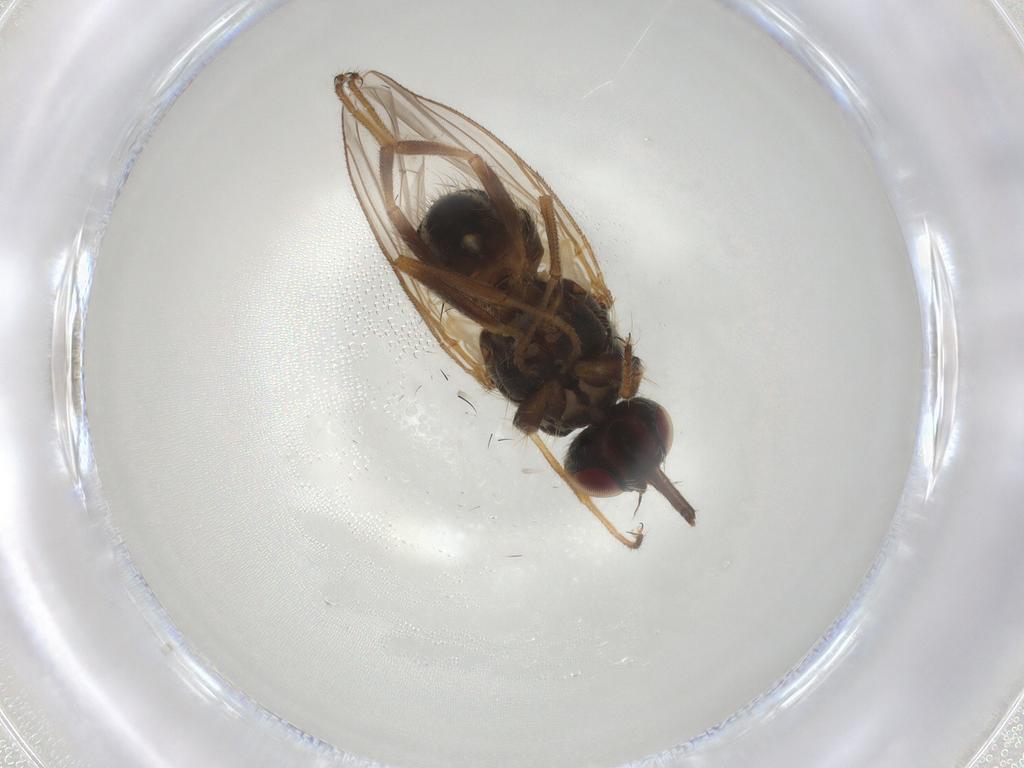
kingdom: Animalia
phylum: Arthropoda
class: Insecta
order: Diptera
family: Muscidae
